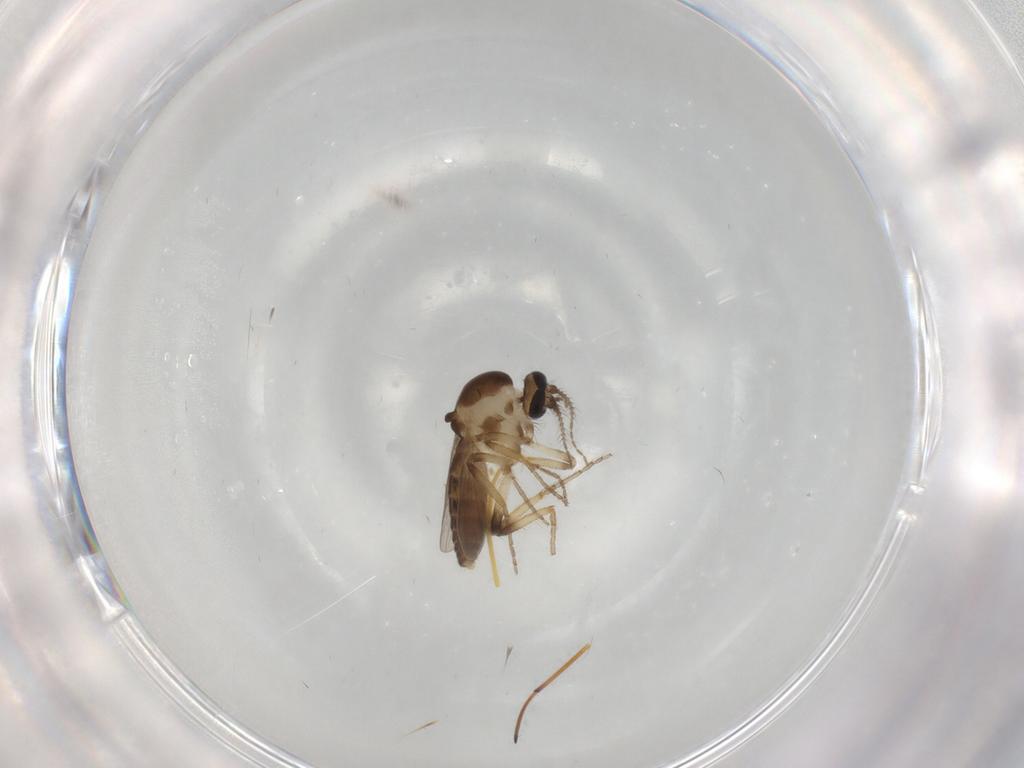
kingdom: Animalia
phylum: Arthropoda
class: Insecta
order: Diptera
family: Ceratopogonidae
